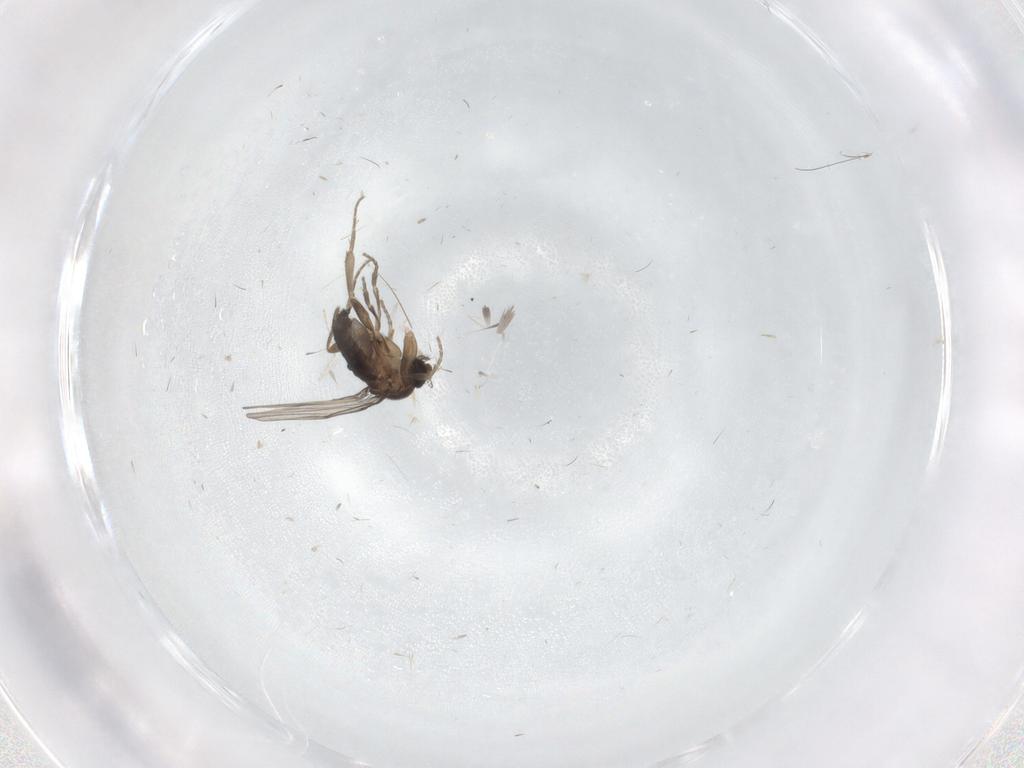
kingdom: Animalia
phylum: Arthropoda
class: Insecta
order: Diptera
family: Phoridae
